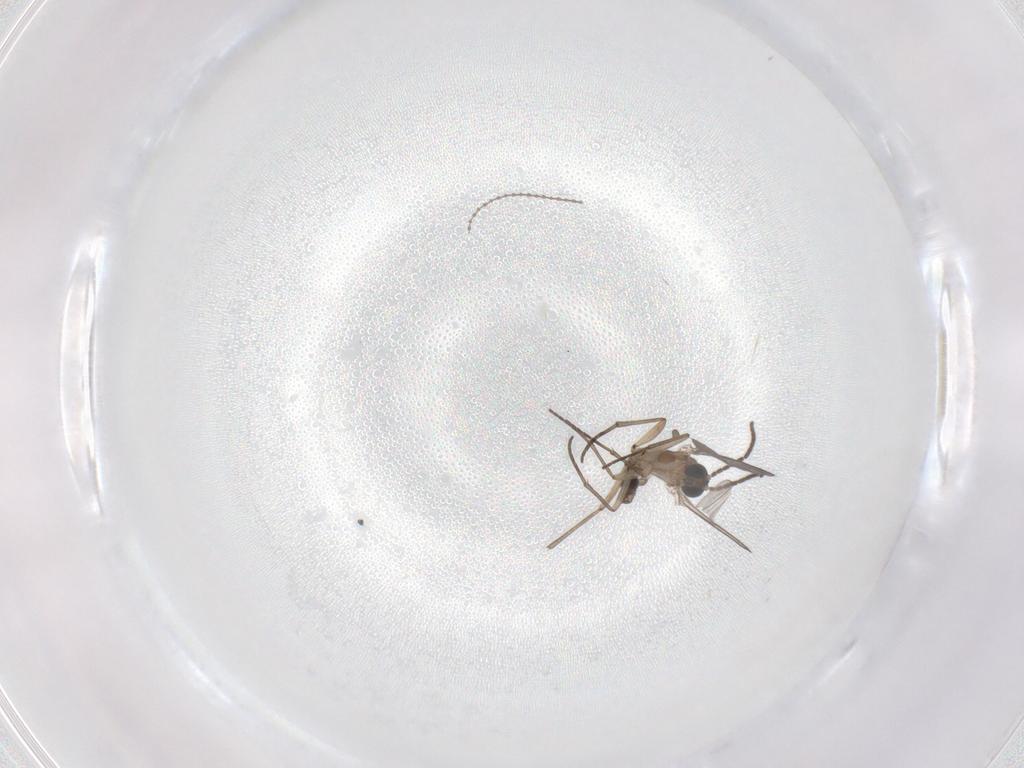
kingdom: Animalia
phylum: Arthropoda
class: Insecta
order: Diptera
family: Sciaridae
